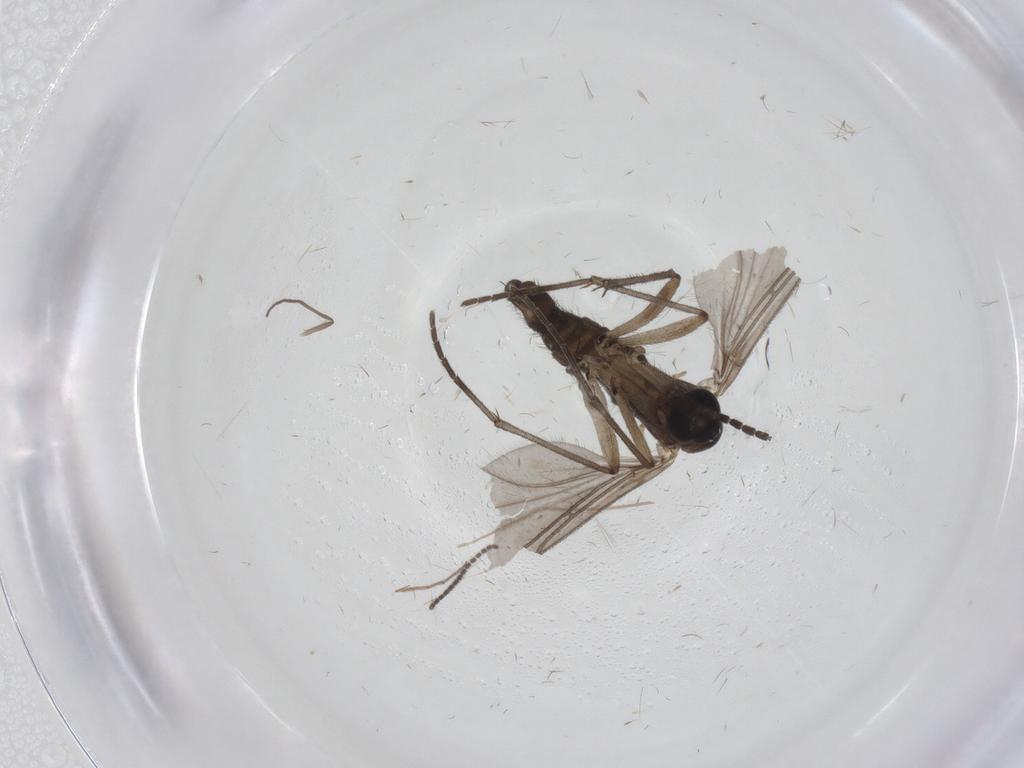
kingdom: Animalia
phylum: Arthropoda
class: Insecta
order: Diptera
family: Sciaridae
